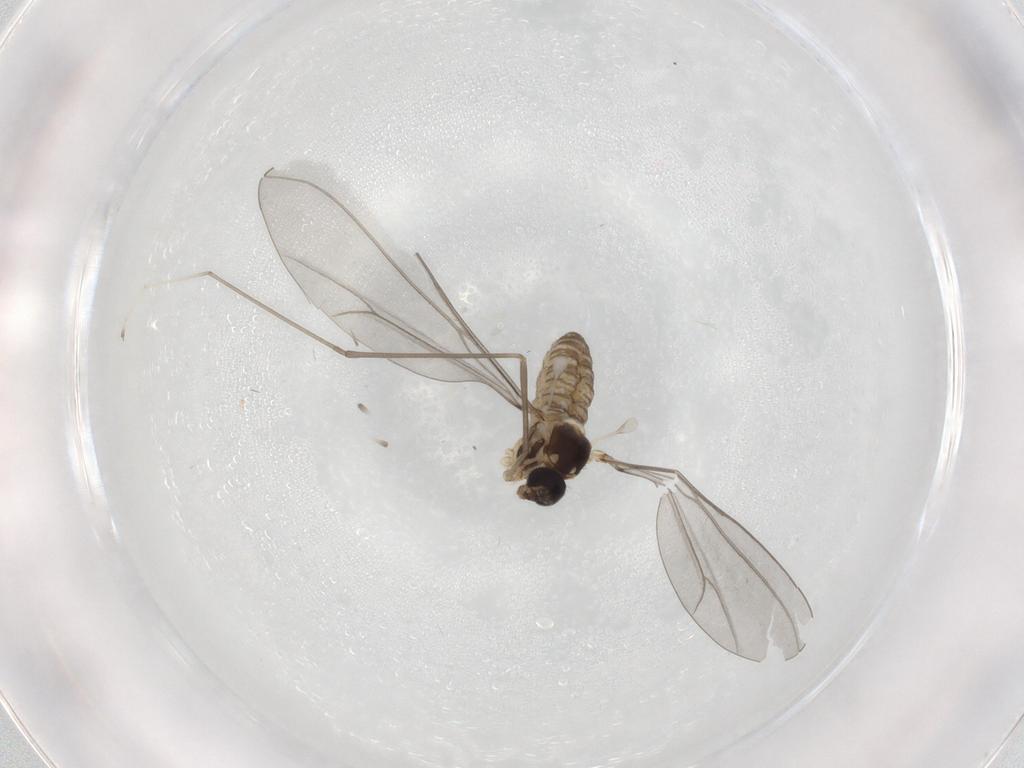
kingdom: Animalia
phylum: Arthropoda
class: Insecta
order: Diptera
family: Cecidomyiidae
